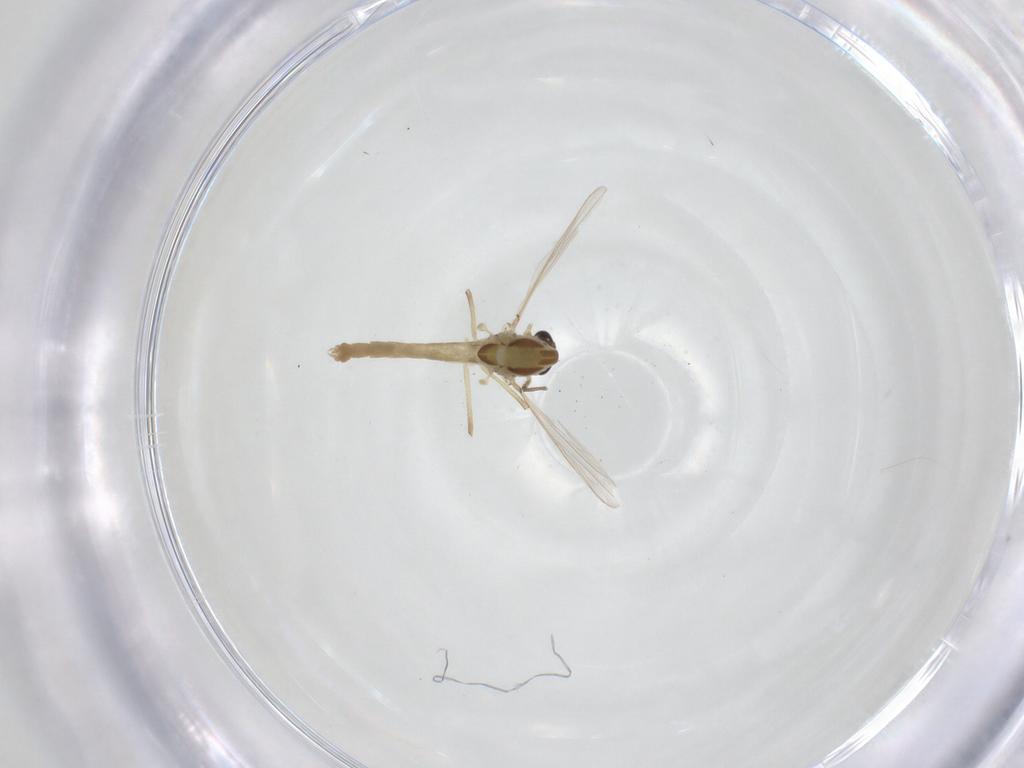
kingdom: Animalia
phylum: Arthropoda
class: Insecta
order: Diptera
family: Chironomidae
